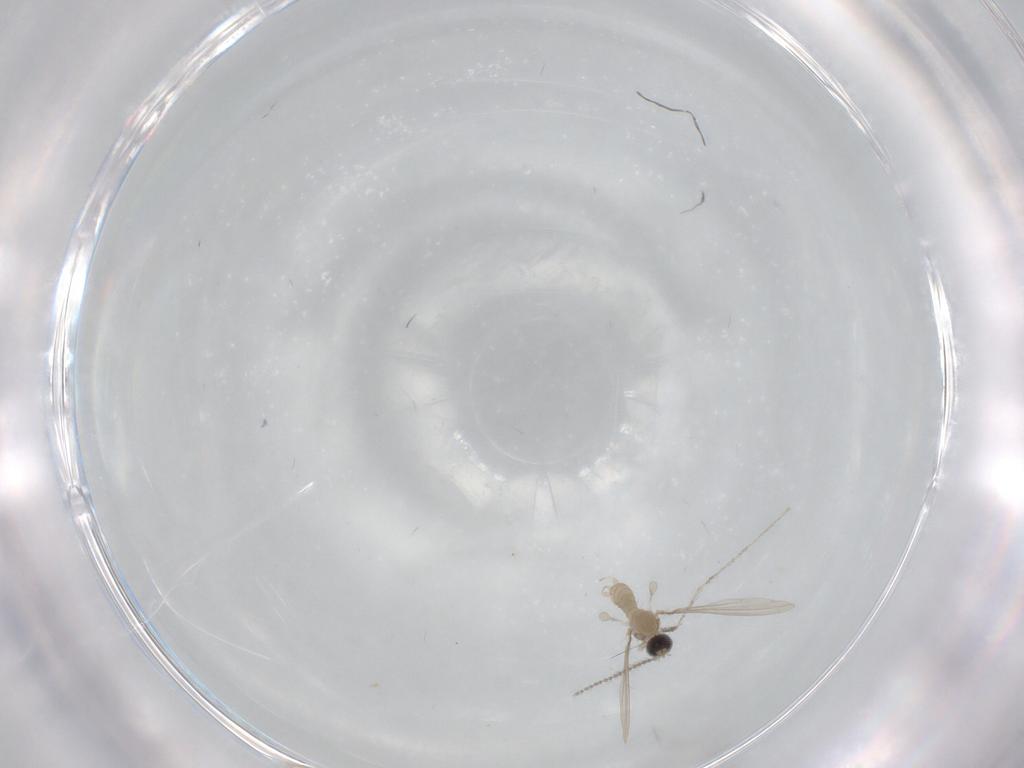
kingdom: Animalia
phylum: Arthropoda
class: Insecta
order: Diptera
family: Cecidomyiidae
